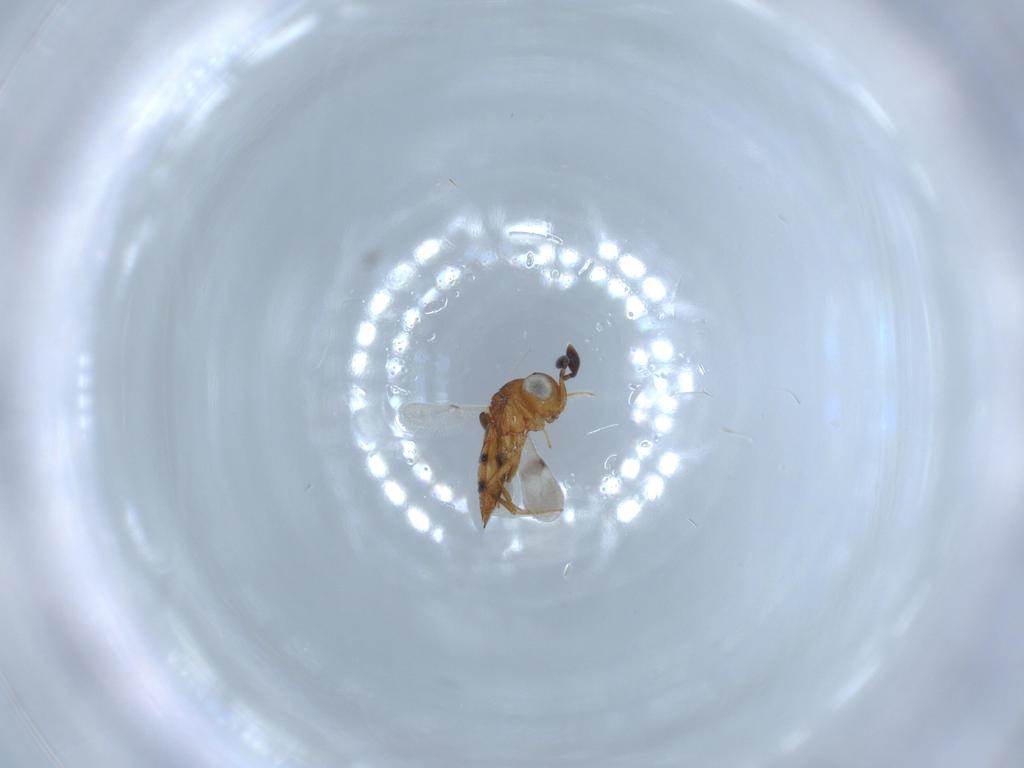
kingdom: Animalia
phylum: Arthropoda
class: Insecta
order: Hymenoptera
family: Scelionidae
